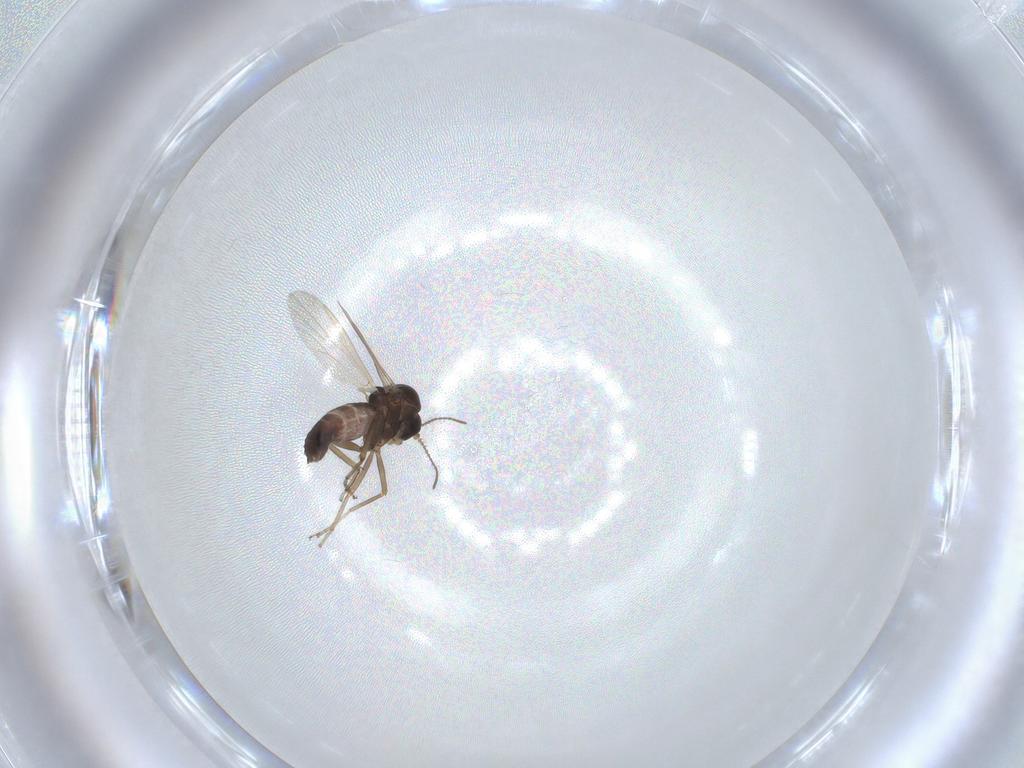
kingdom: Animalia
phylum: Arthropoda
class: Insecta
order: Diptera
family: Ceratopogonidae
